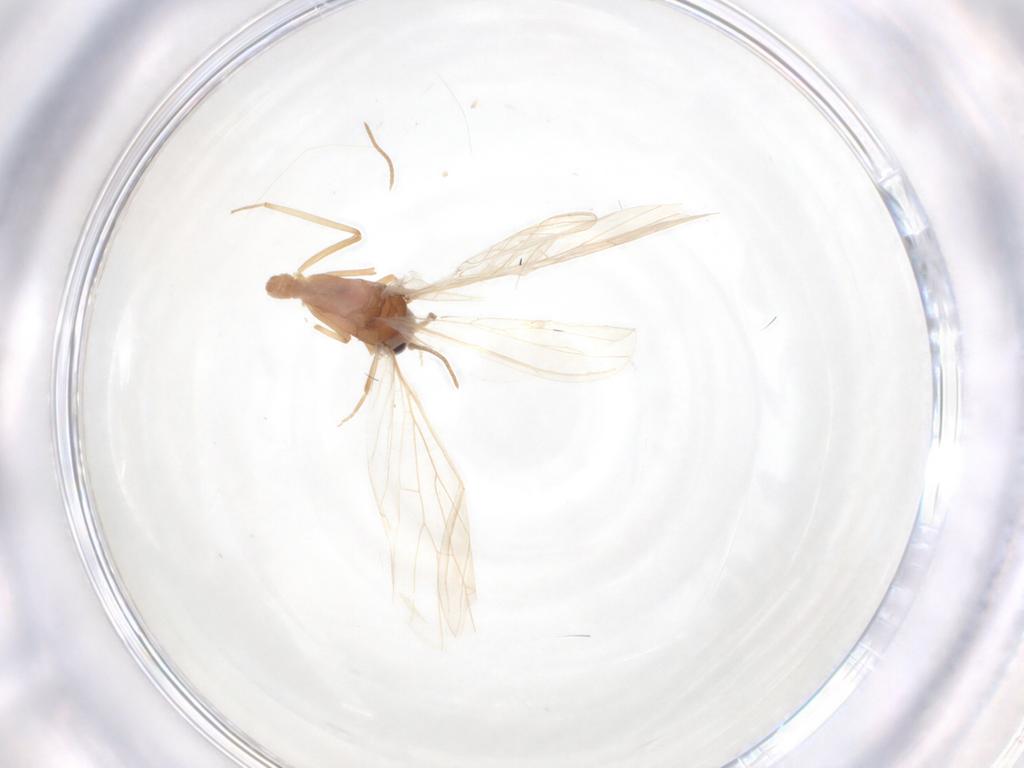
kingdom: Animalia
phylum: Arthropoda
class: Insecta
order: Neuroptera
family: Coniopterygidae
